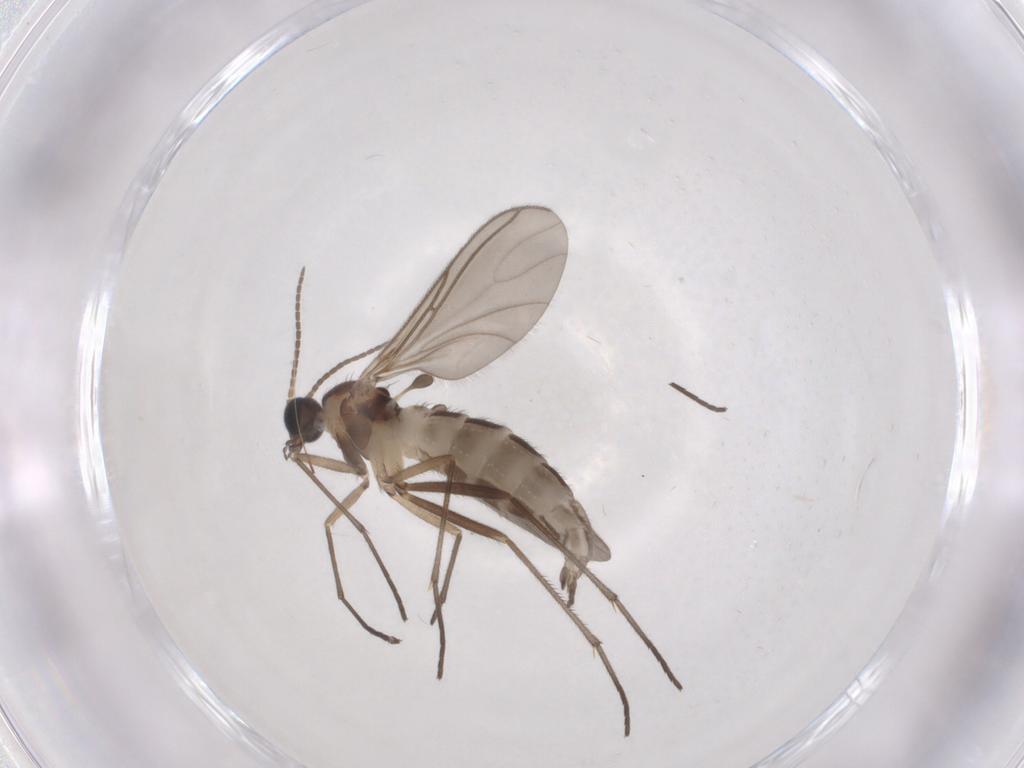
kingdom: Animalia
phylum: Arthropoda
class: Insecta
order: Diptera
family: Sciaridae
